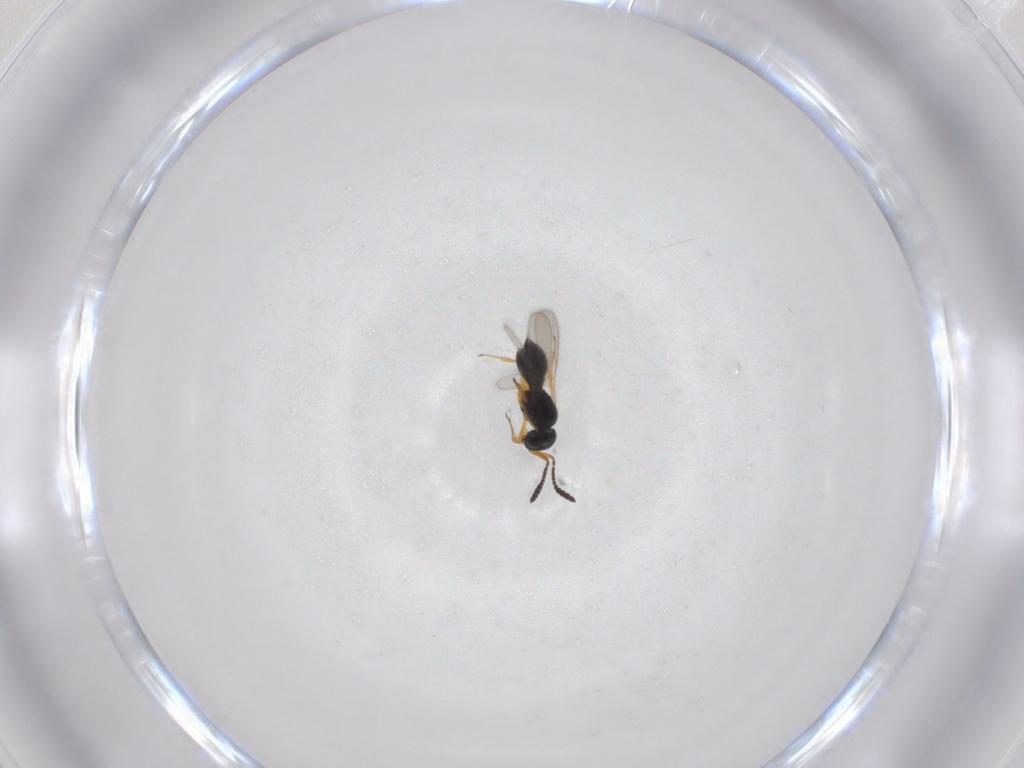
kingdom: Animalia
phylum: Arthropoda
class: Insecta
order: Hymenoptera
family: Scelionidae
